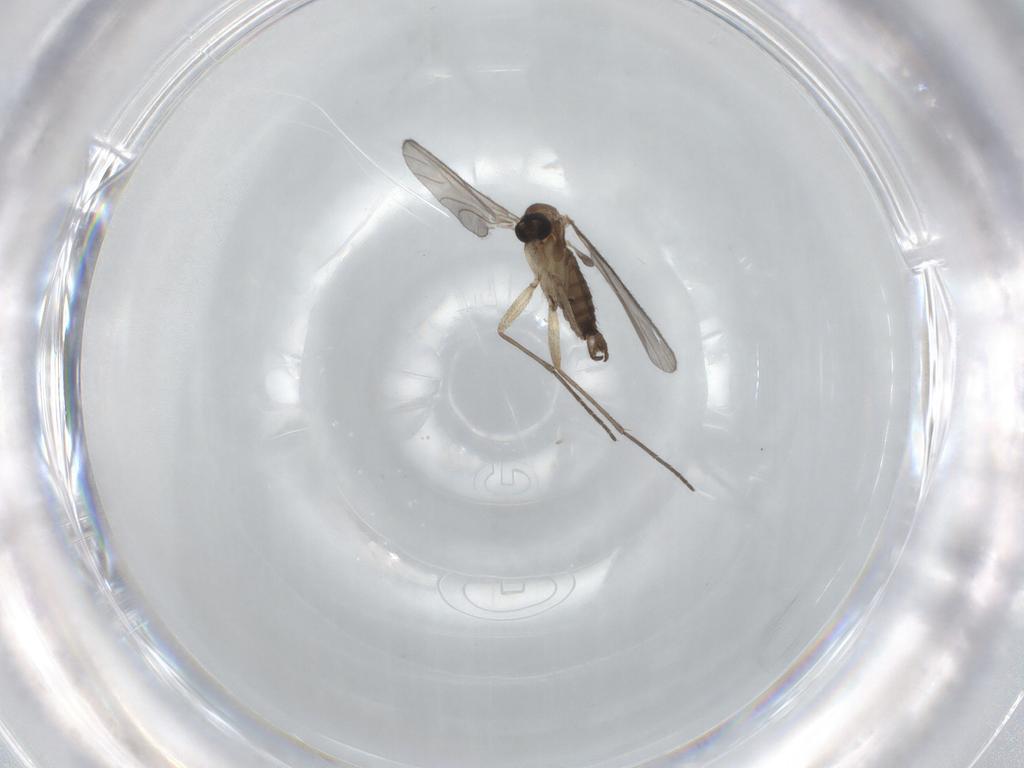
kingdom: Animalia
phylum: Arthropoda
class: Insecta
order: Diptera
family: Sciaridae
